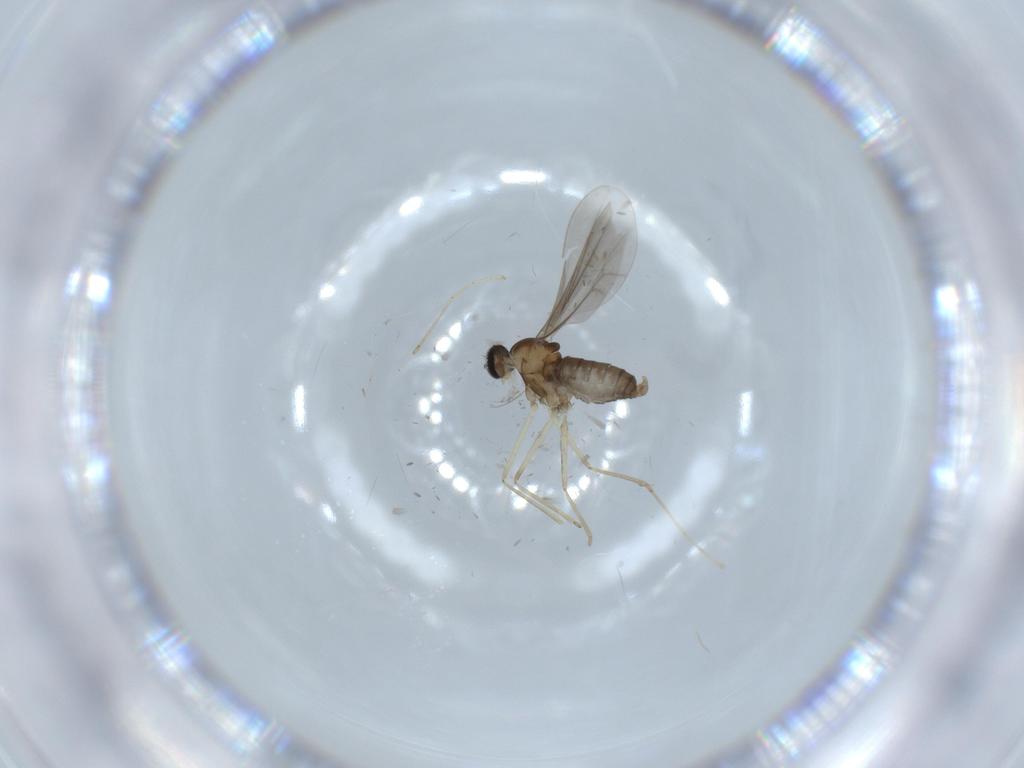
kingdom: Animalia
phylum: Arthropoda
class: Insecta
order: Diptera
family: Cecidomyiidae
